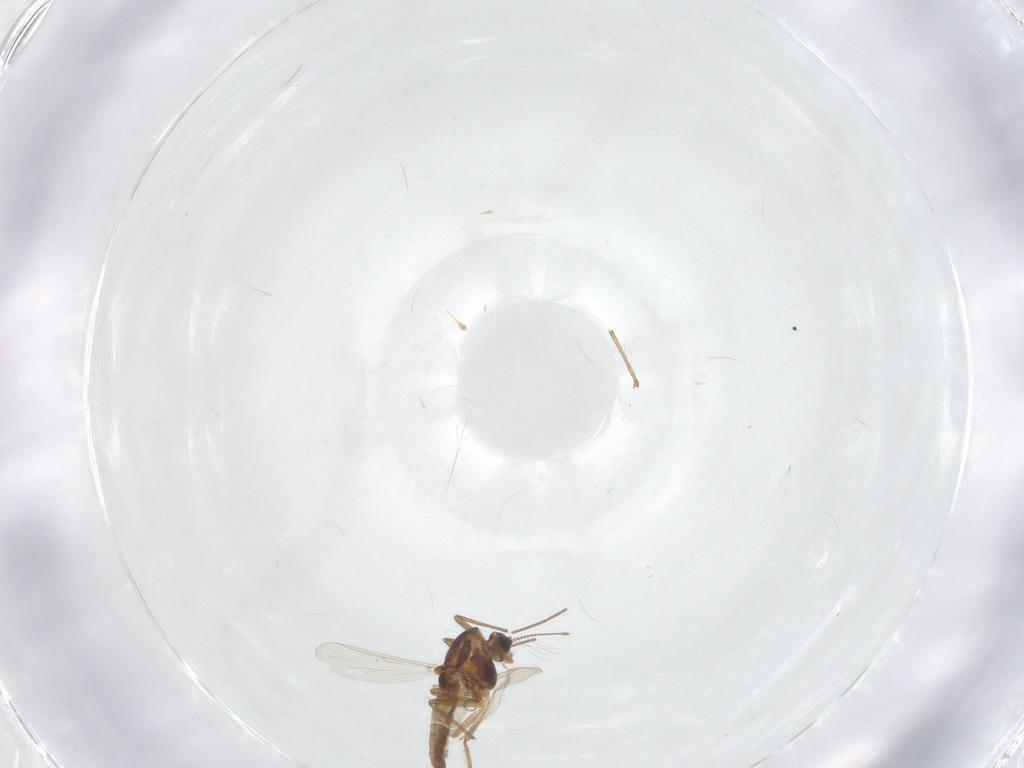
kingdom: Animalia
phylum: Arthropoda
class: Insecta
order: Diptera
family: Chironomidae
